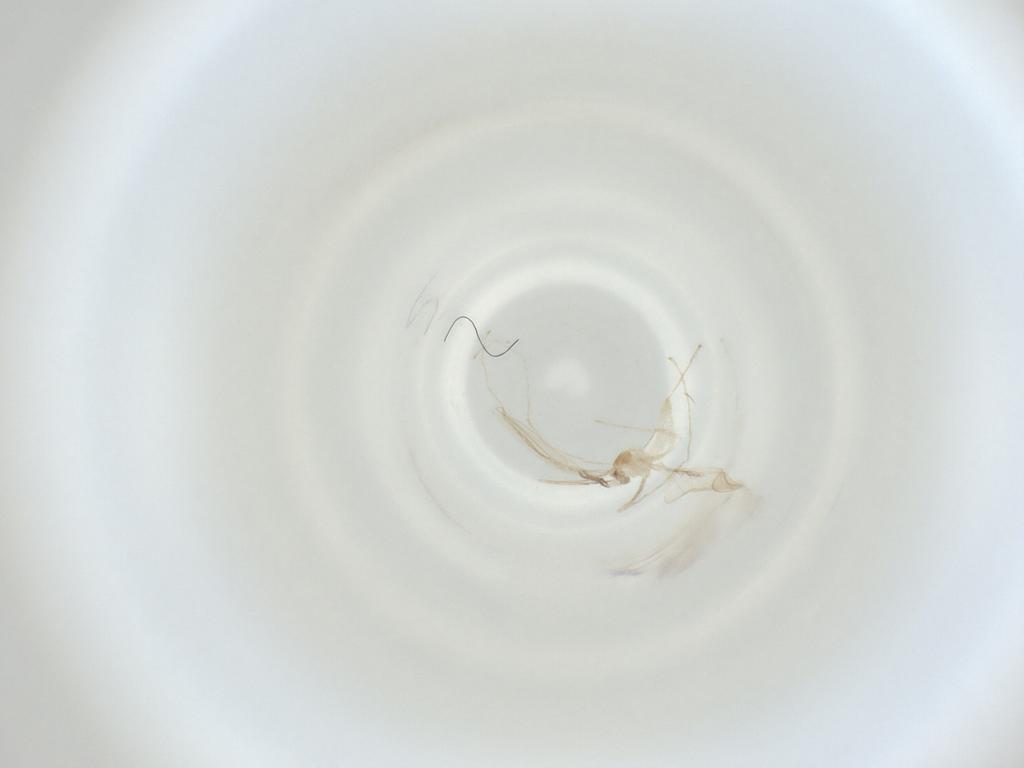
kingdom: Animalia
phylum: Arthropoda
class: Insecta
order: Diptera
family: Cecidomyiidae
